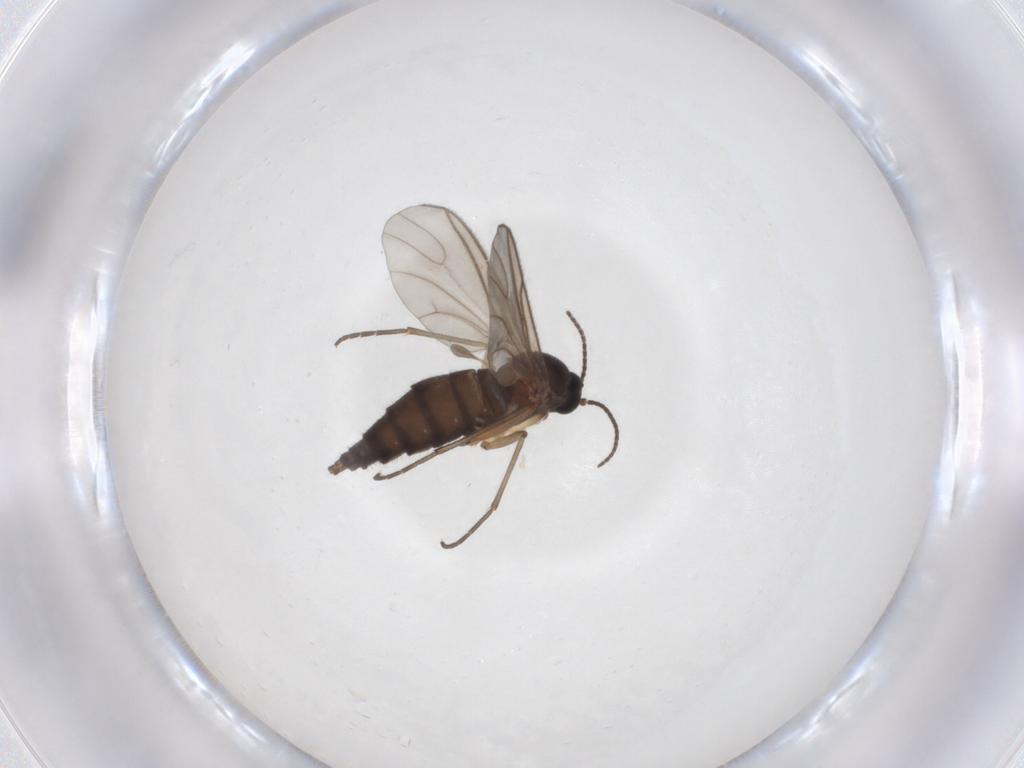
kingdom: Animalia
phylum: Arthropoda
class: Insecta
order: Diptera
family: Sciaridae
